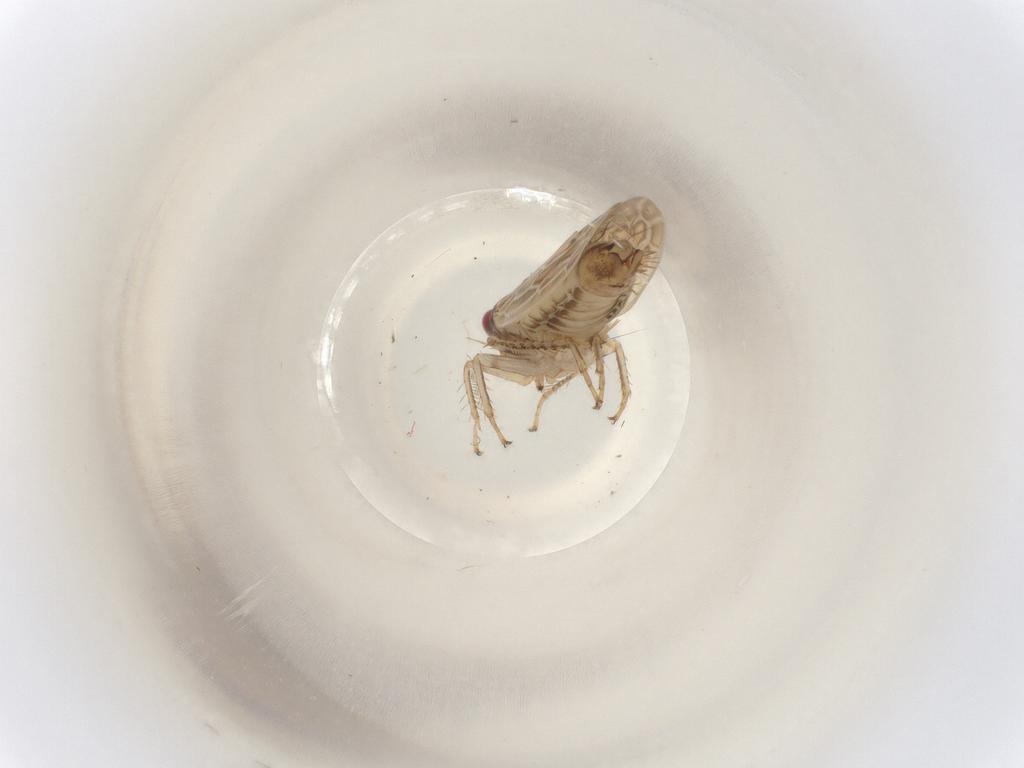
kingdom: Animalia
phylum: Arthropoda
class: Insecta
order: Hemiptera
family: Cicadellidae
